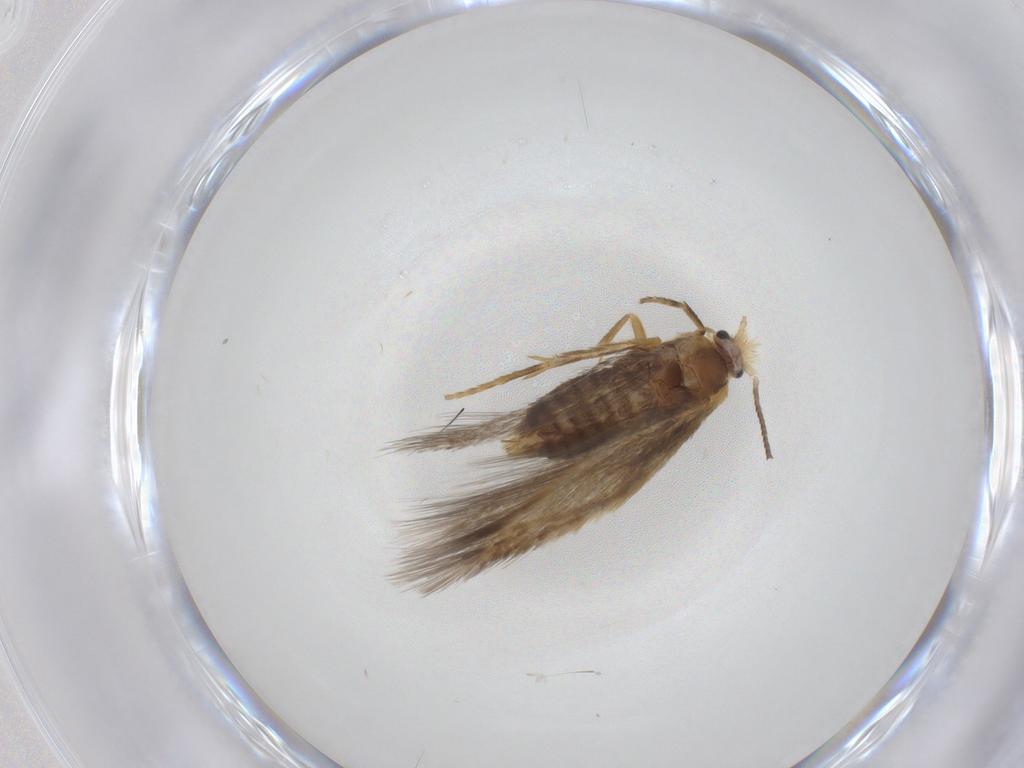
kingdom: Animalia
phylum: Arthropoda
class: Insecta
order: Lepidoptera
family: Nepticulidae
